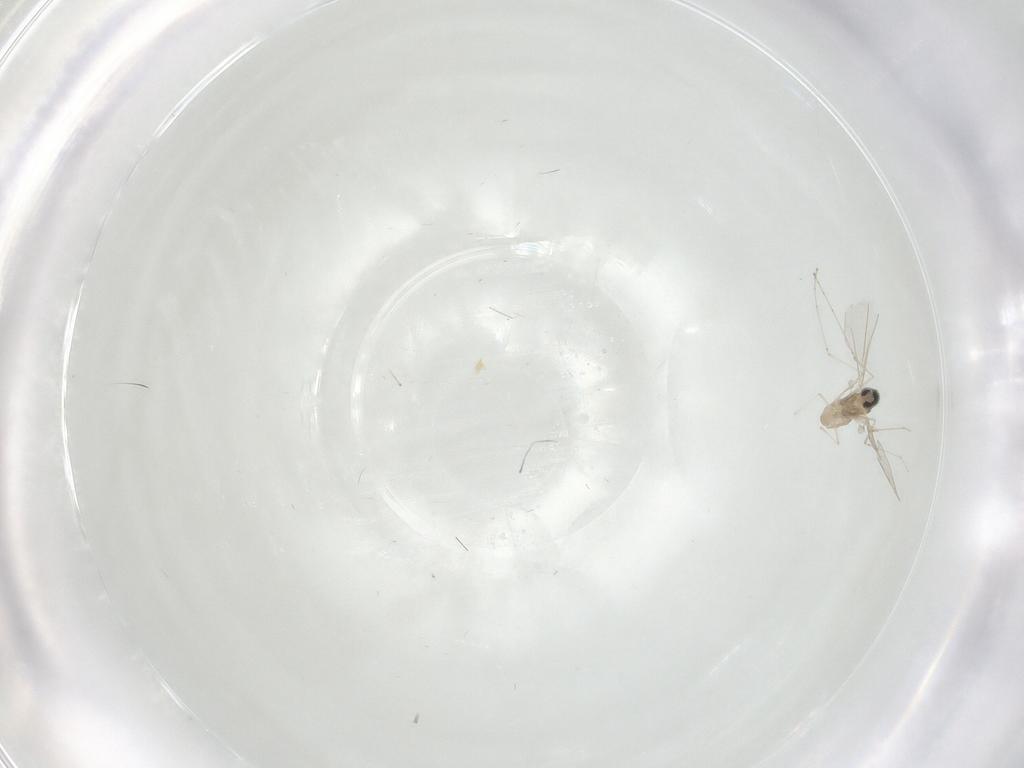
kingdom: Animalia
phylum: Arthropoda
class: Insecta
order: Diptera
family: Cecidomyiidae
